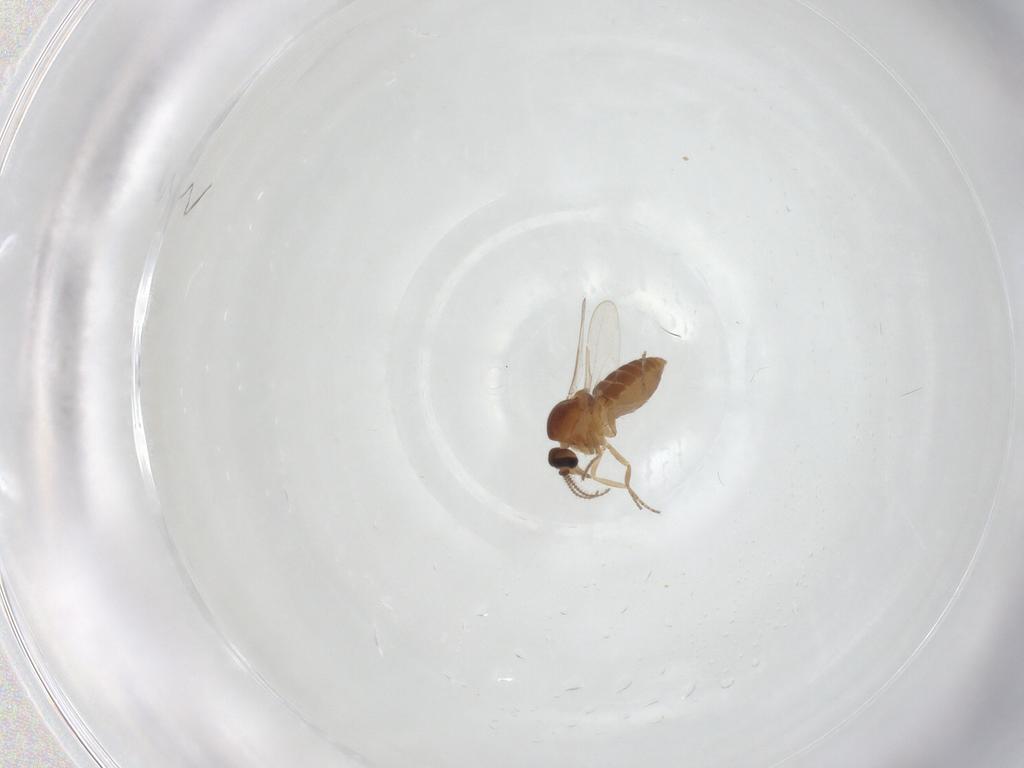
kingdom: Animalia
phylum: Arthropoda
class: Insecta
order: Diptera
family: Ceratopogonidae
